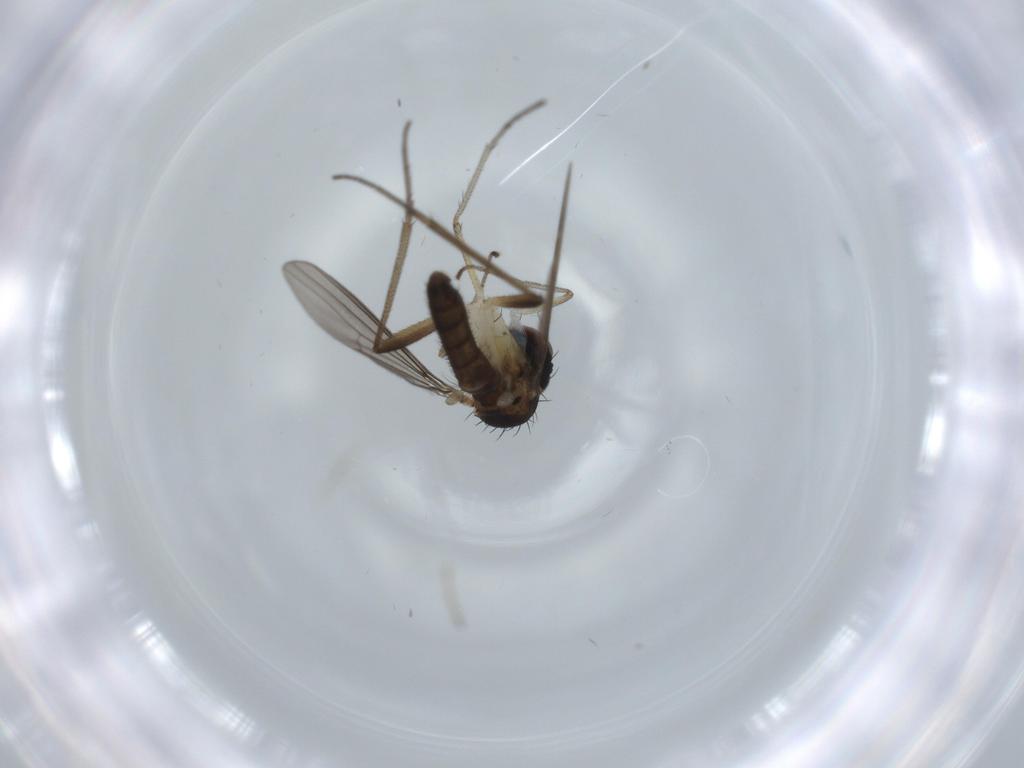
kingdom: Animalia
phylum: Arthropoda
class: Insecta
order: Diptera
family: Dolichopodidae
